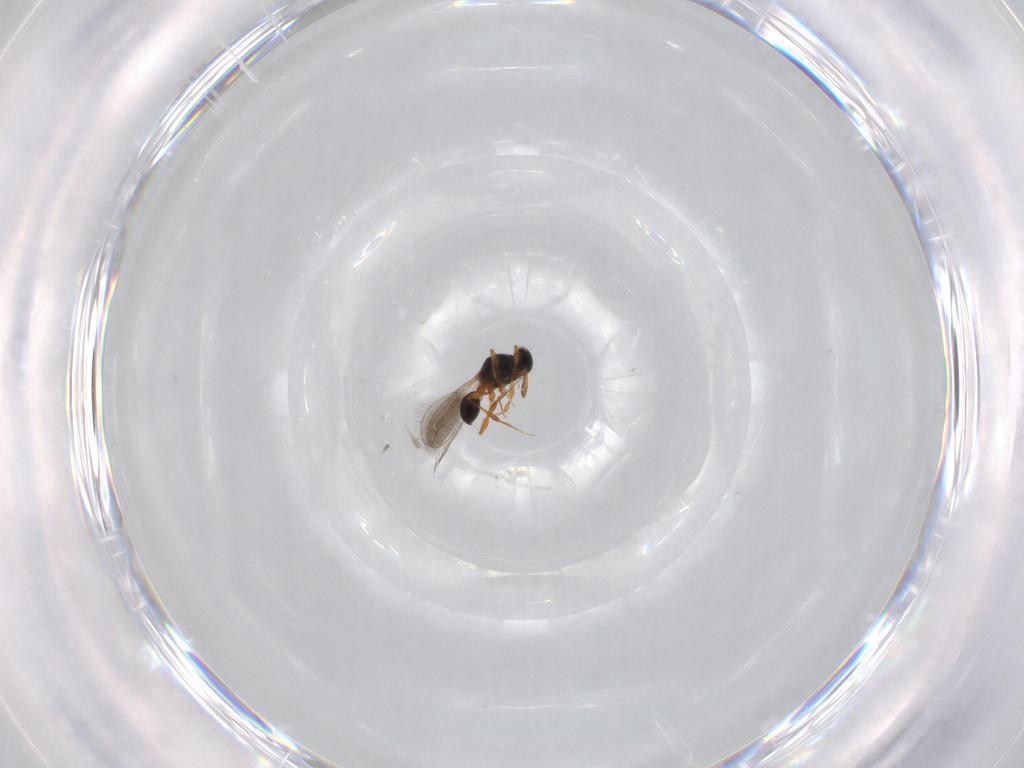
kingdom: Animalia
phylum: Arthropoda
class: Insecta
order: Hymenoptera
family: Platygastridae
